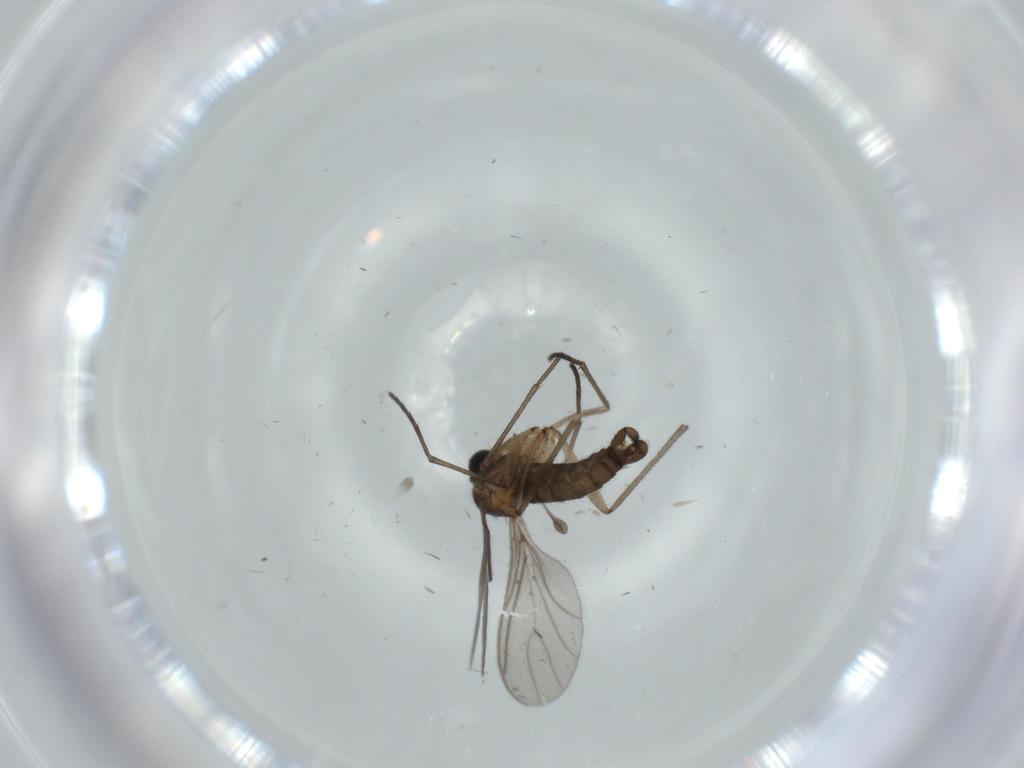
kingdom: Animalia
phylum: Arthropoda
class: Insecta
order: Diptera
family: Sciaridae
